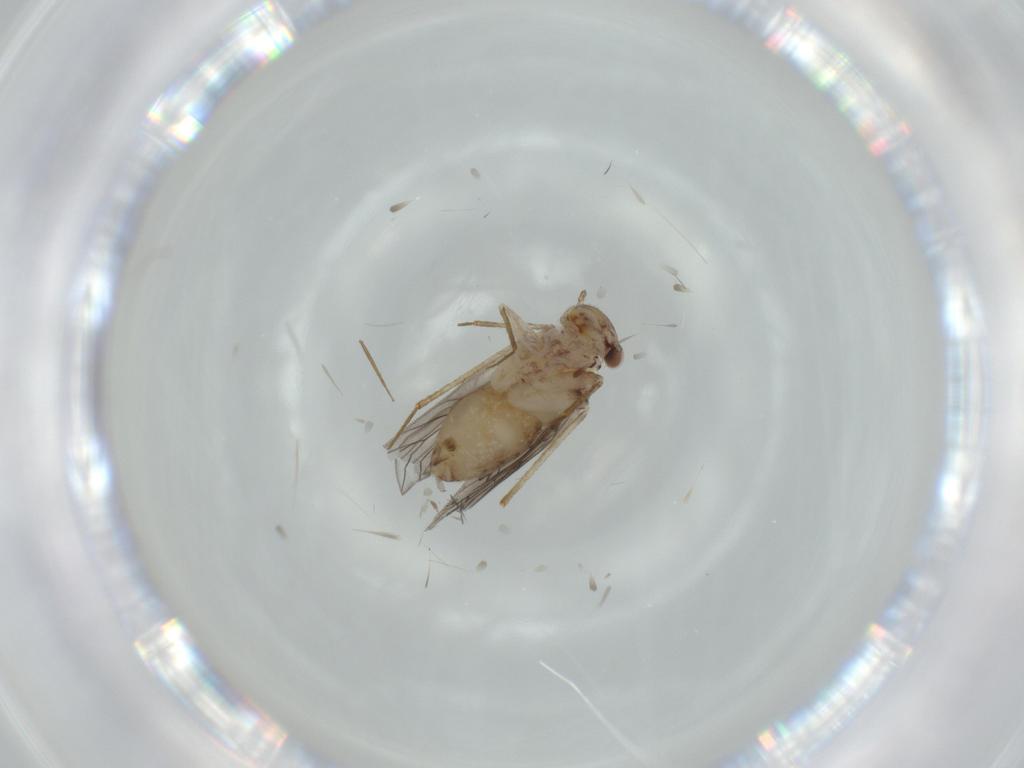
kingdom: Animalia
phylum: Arthropoda
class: Insecta
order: Psocodea
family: Lepidopsocidae
